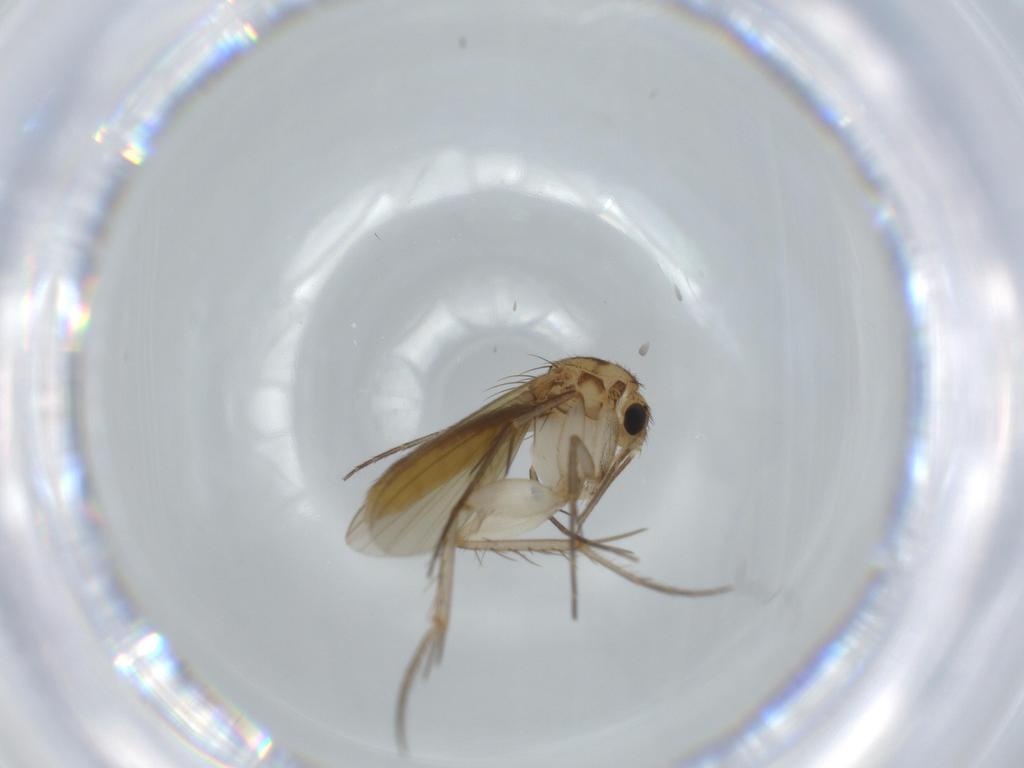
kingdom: Animalia
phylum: Arthropoda
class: Insecta
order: Diptera
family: Mycetophilidae
